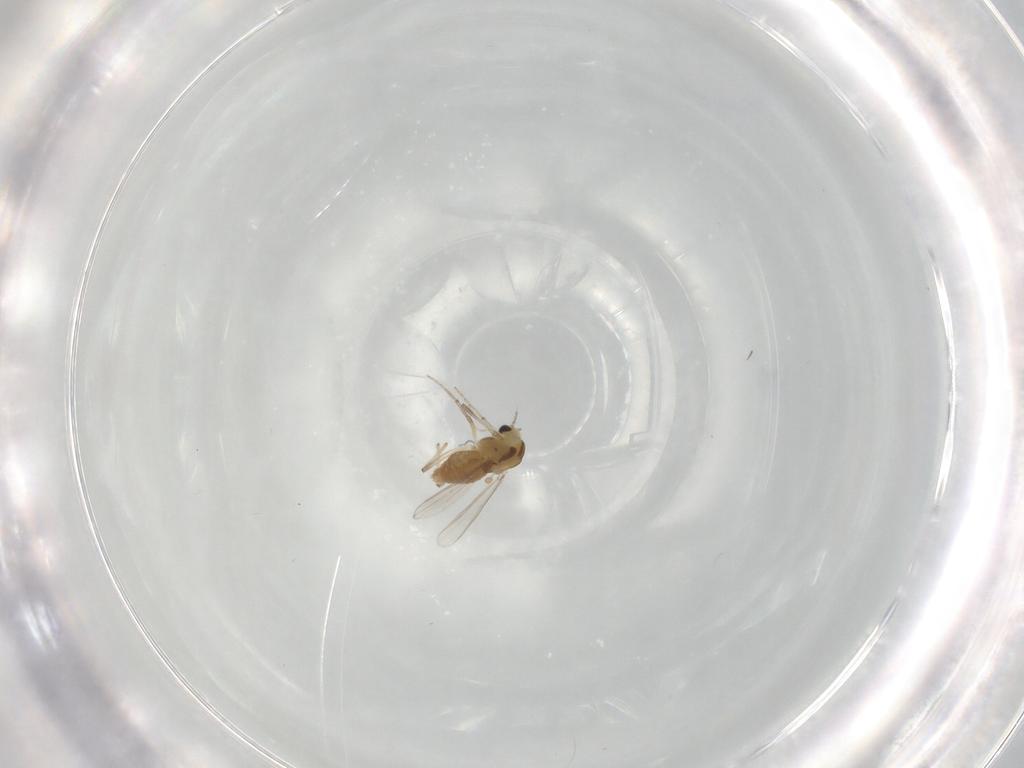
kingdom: Animalia
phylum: Arthropoda
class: Insecta
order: Diptera
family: Chironomidae
